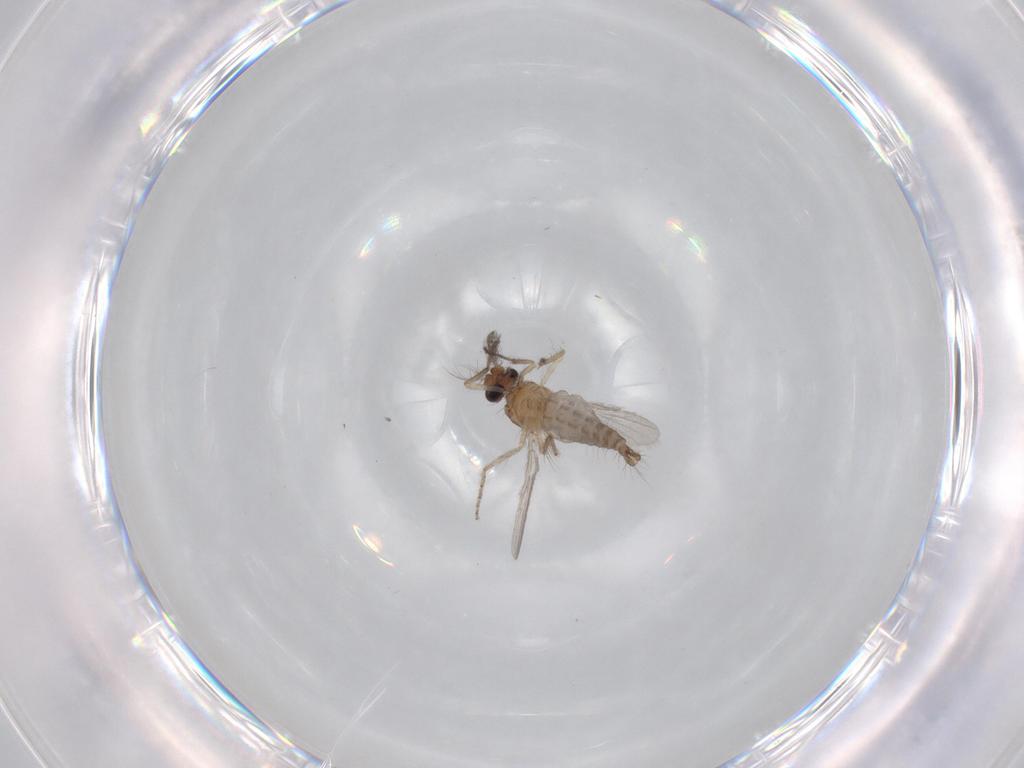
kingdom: Animalia
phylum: Arthropoda
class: Insecta
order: Diptera
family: Ceratopogonidae
